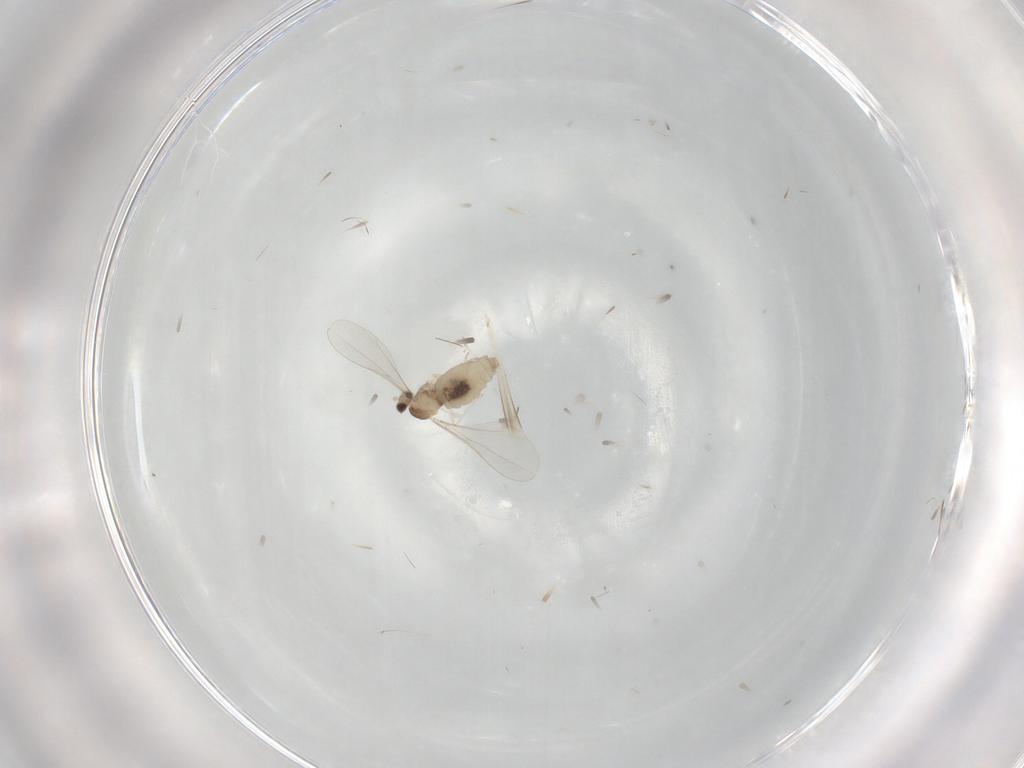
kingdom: Animalia
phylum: Arthropoda
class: Insecta
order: Diptera
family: Cecidomyiidae
